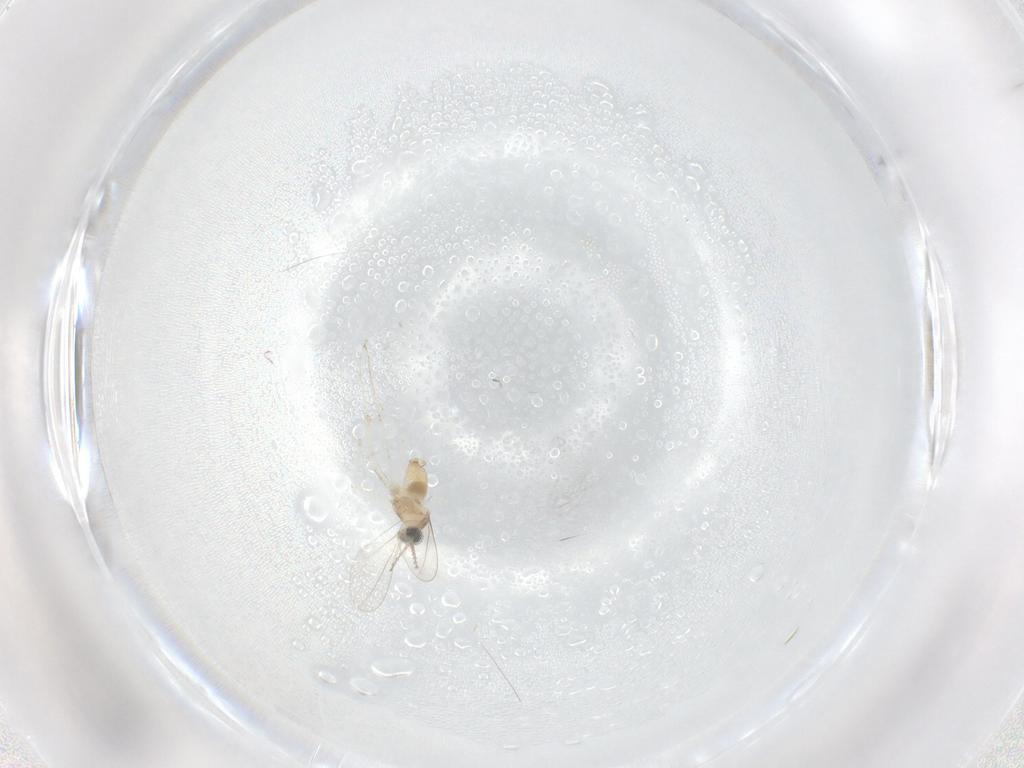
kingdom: Animalia
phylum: Arthropoda
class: Insecta
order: Diptera
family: Cecidomyiidae
